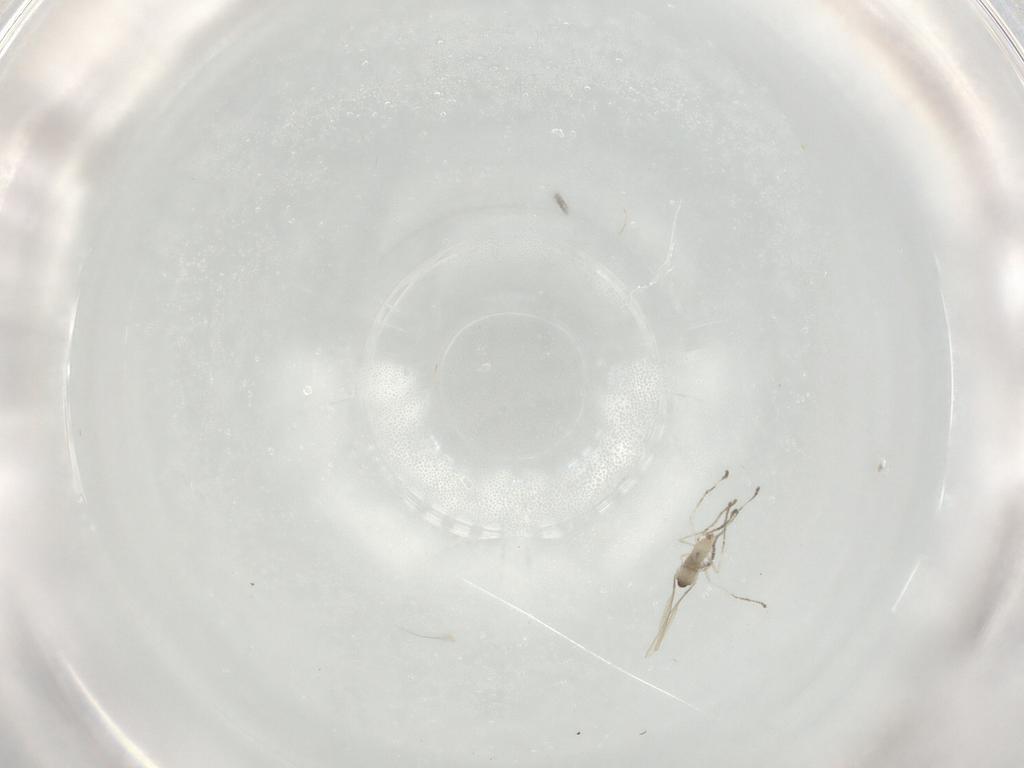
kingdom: Animalia
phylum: Arthropoda
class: Insecta
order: Diptera
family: Cecidomyiidae
